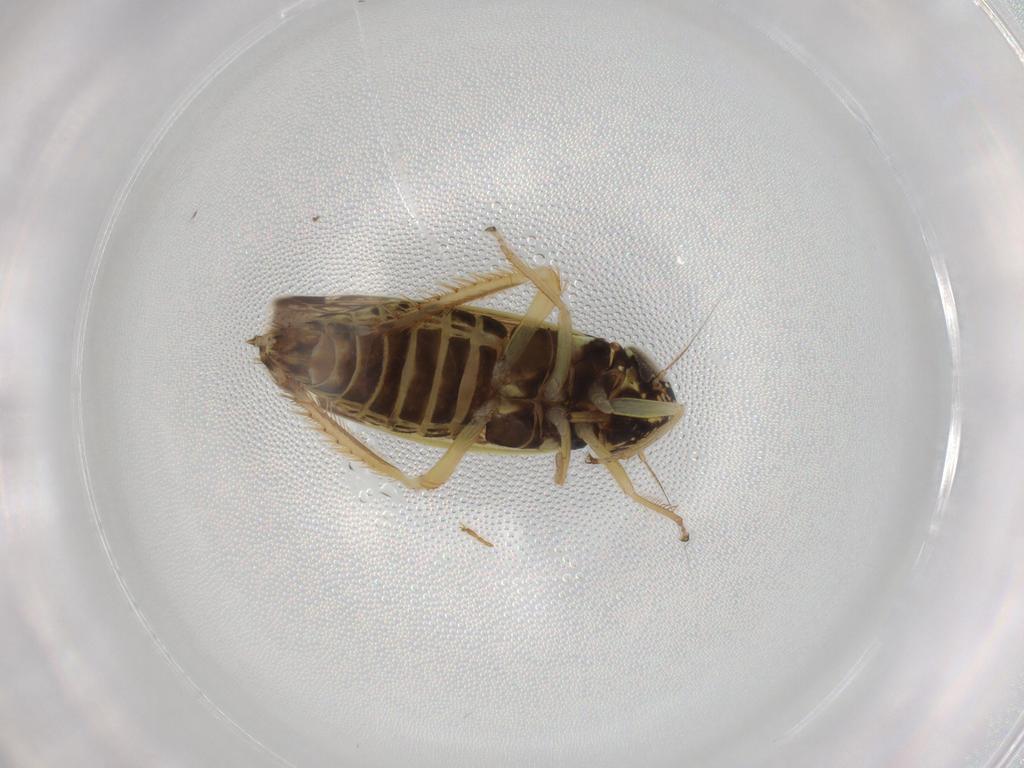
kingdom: Animalia
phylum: Arthropoda
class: Insecta
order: Hemiptera
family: Cicadellidae
